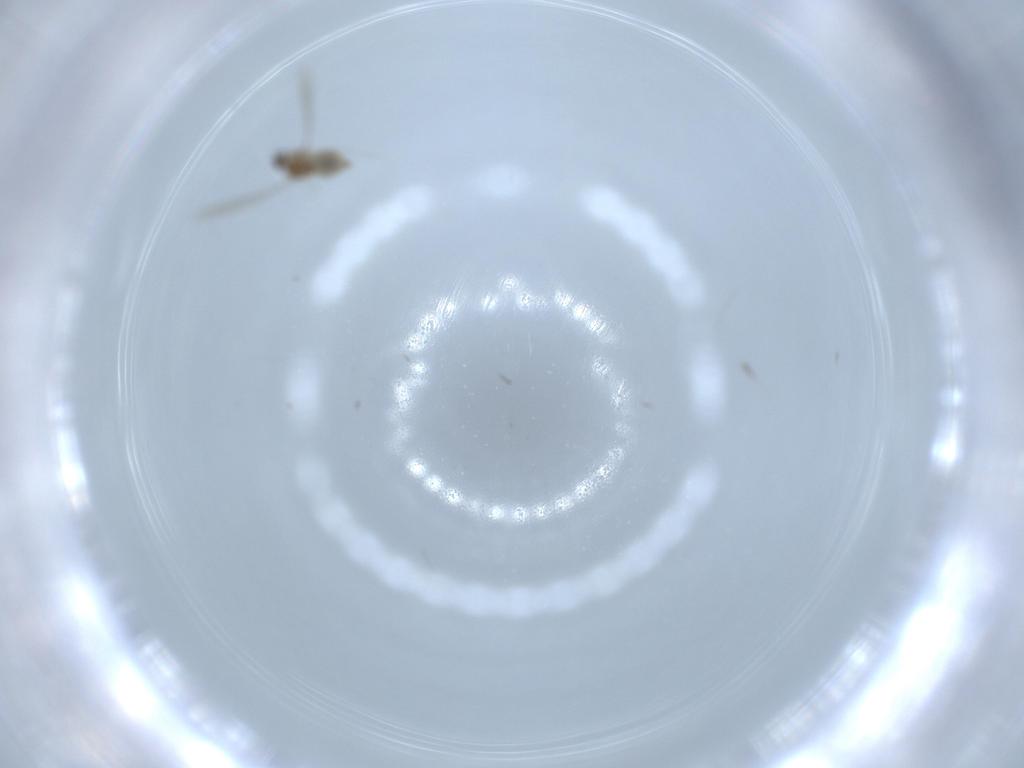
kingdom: Animalia
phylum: Arthropoda
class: Insecta
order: Diptera
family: Cecidomyiidae
